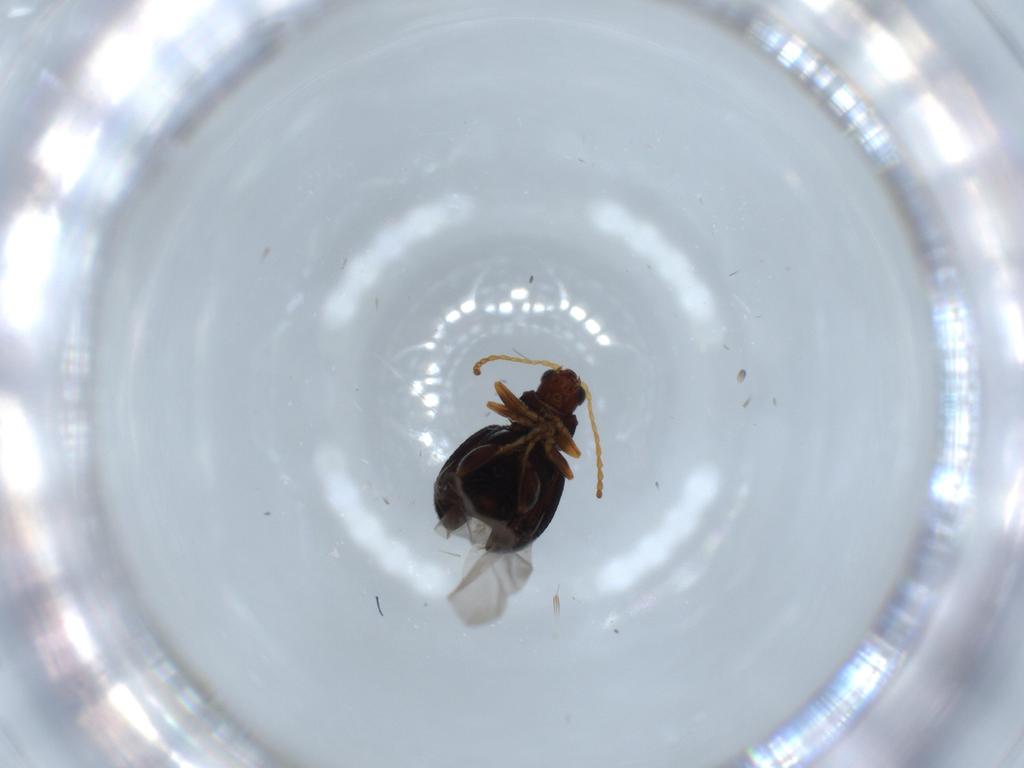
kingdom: Animalia
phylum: Arthropoda
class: Insecta
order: Coleoptera
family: Chrysomelidae
